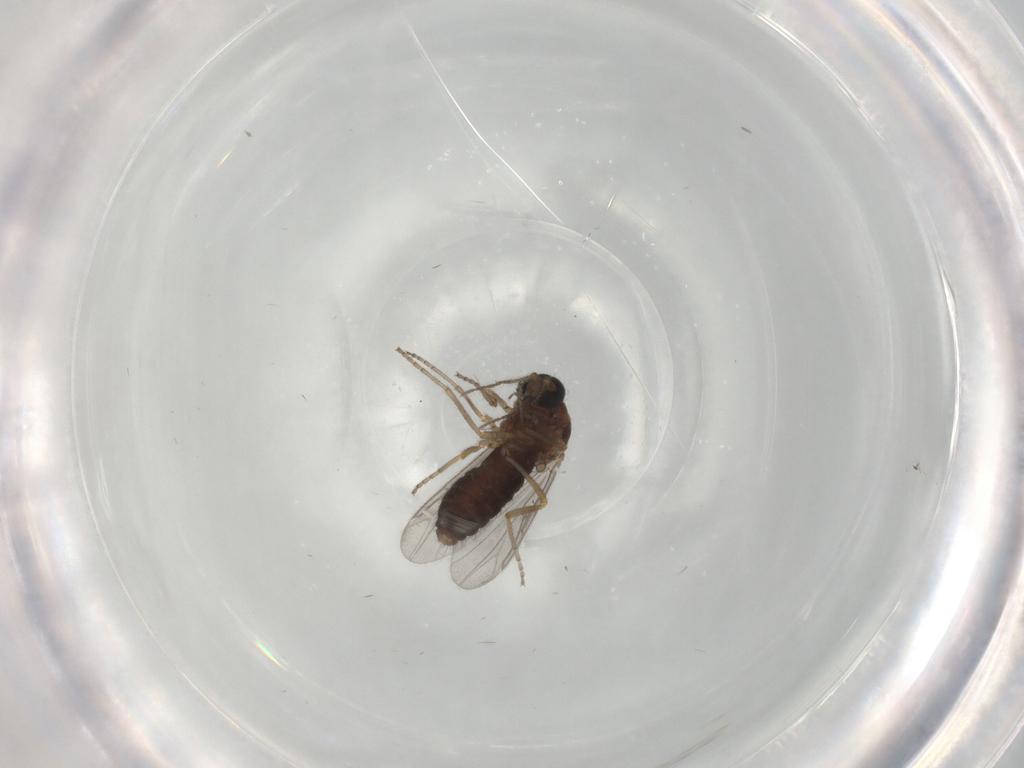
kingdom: Animalia
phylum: Arthropoda
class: Insecta
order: Diptera
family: Ceratopogonidae
